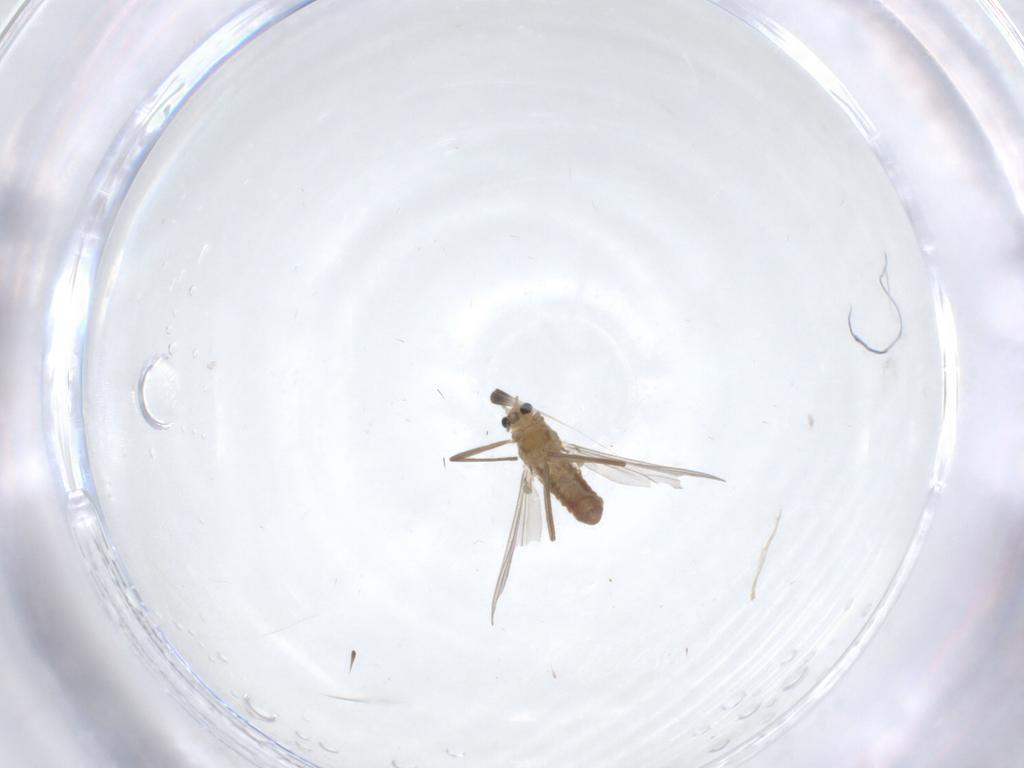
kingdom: Animalia
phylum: Arthropoda
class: Insecta
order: Diptera
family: Chironomidae
